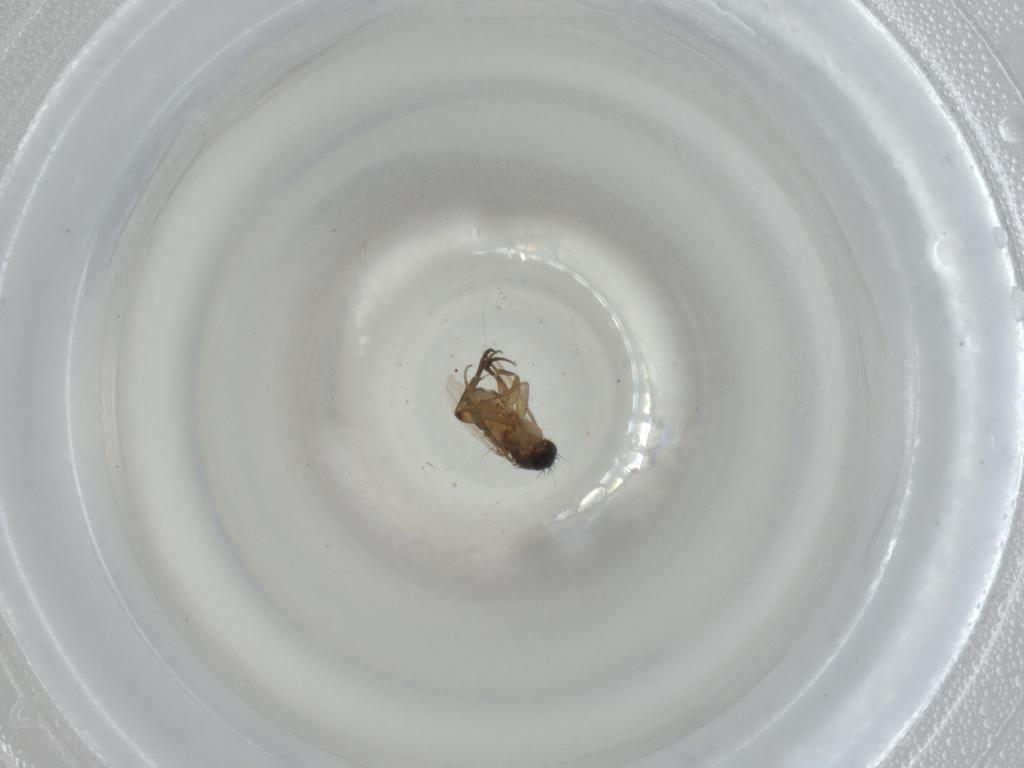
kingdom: Animalia
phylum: Arthropoda
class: Insecta
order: Diptera
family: Phoridae
